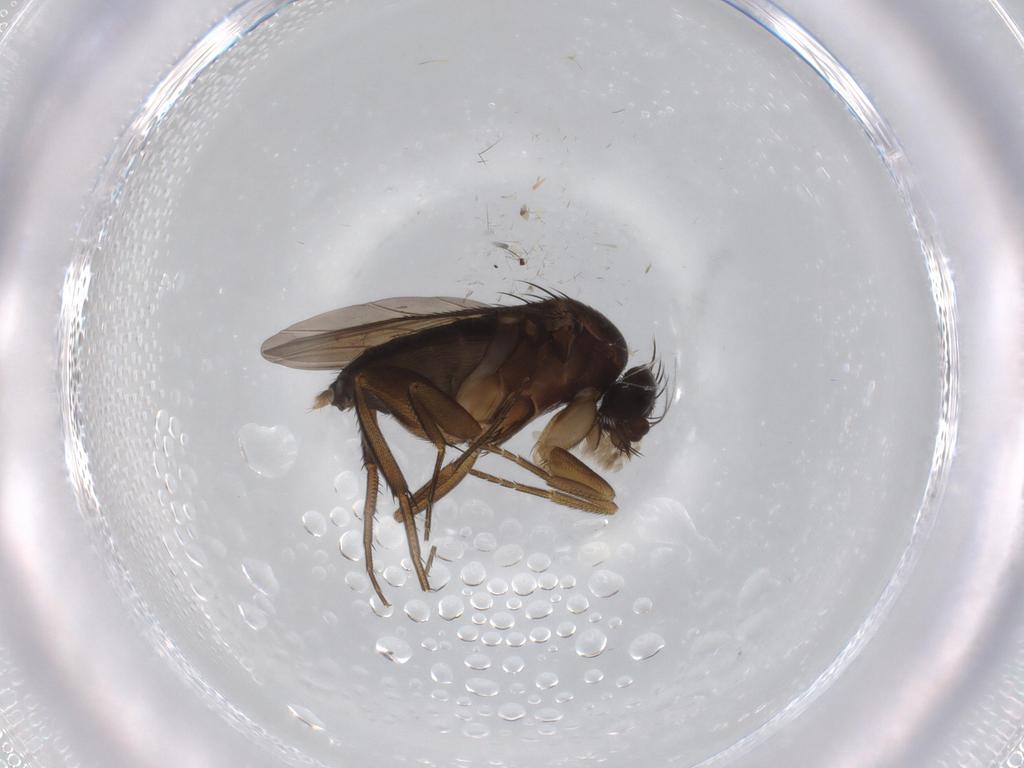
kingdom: Animalia
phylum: Arthropoda
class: Insecta
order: Diptera
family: Phoridae
